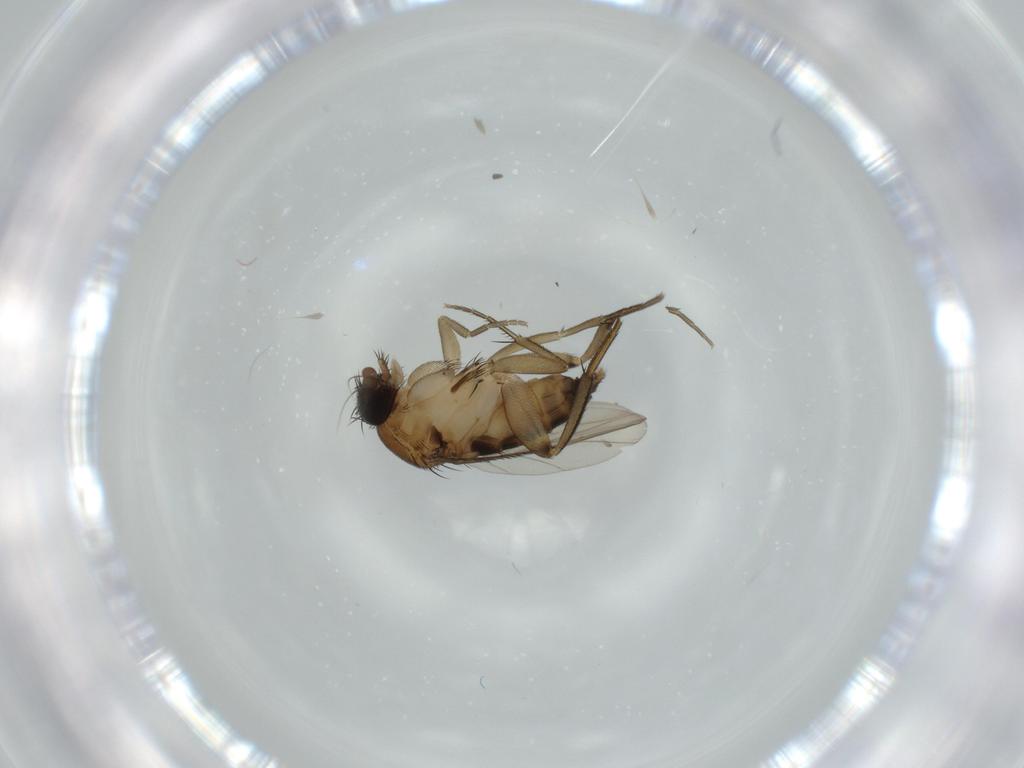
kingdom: Animalia
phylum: Arthropoda
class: Insecta
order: Diptera
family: Phoridae
